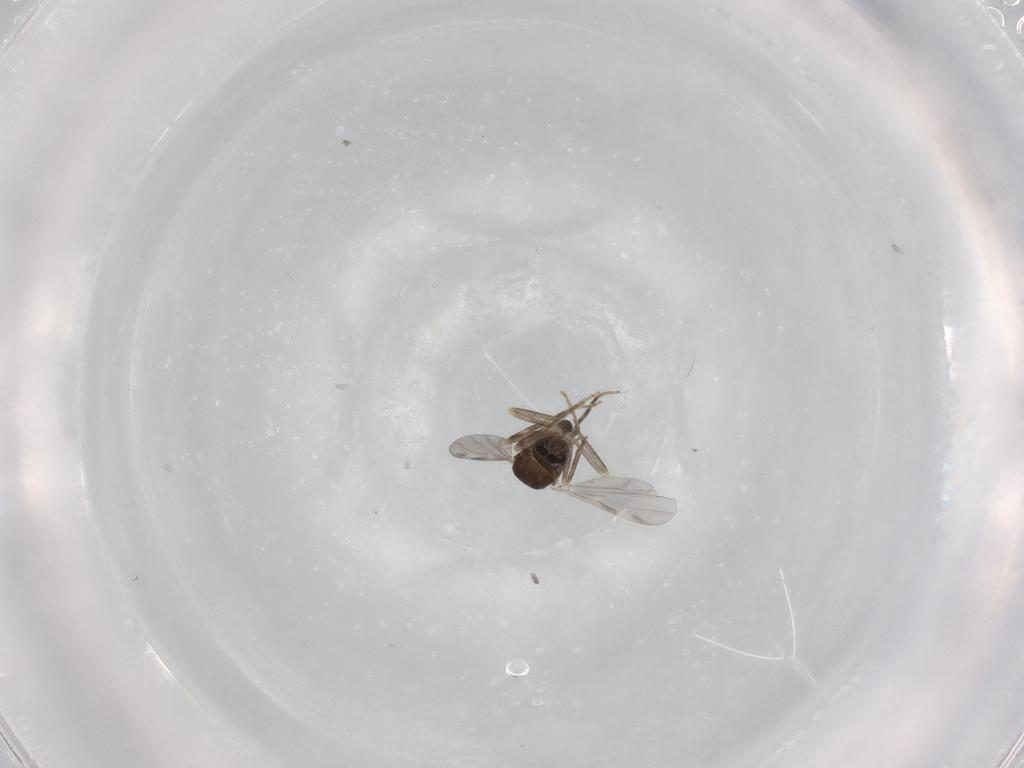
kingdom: Animalia
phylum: Arthropoda
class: Insecta
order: Diptera
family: Ceratopogonidae
